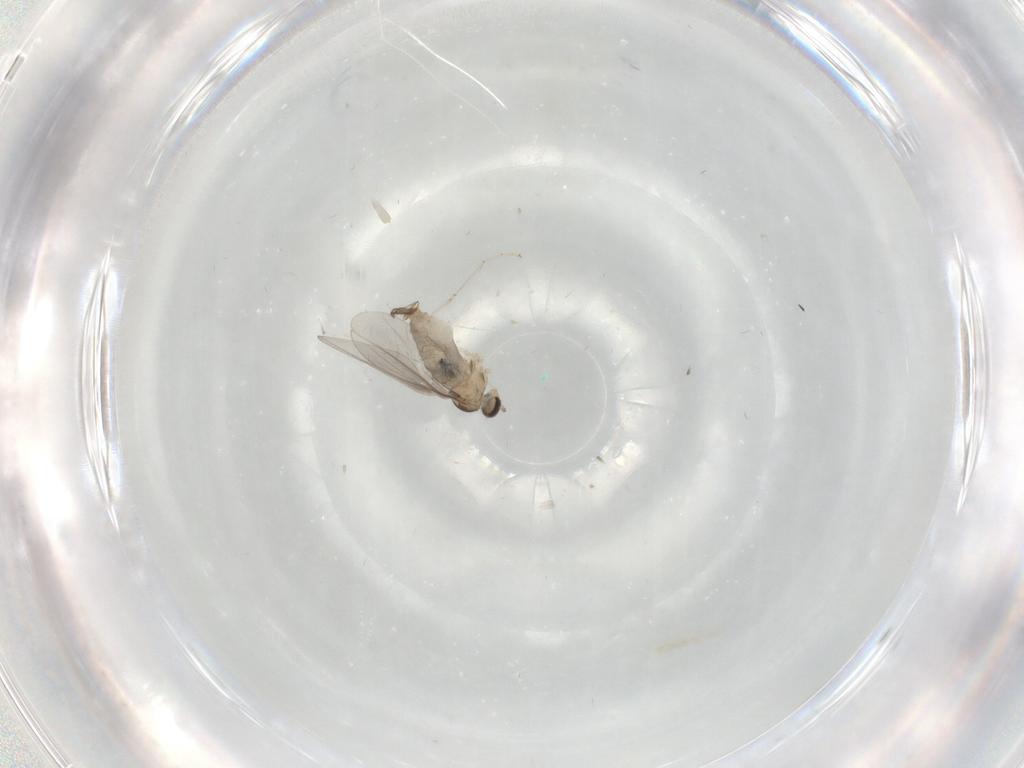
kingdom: Animalia
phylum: Arthropoda
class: Insecta
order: Diptera
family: Cecidomyiidae
